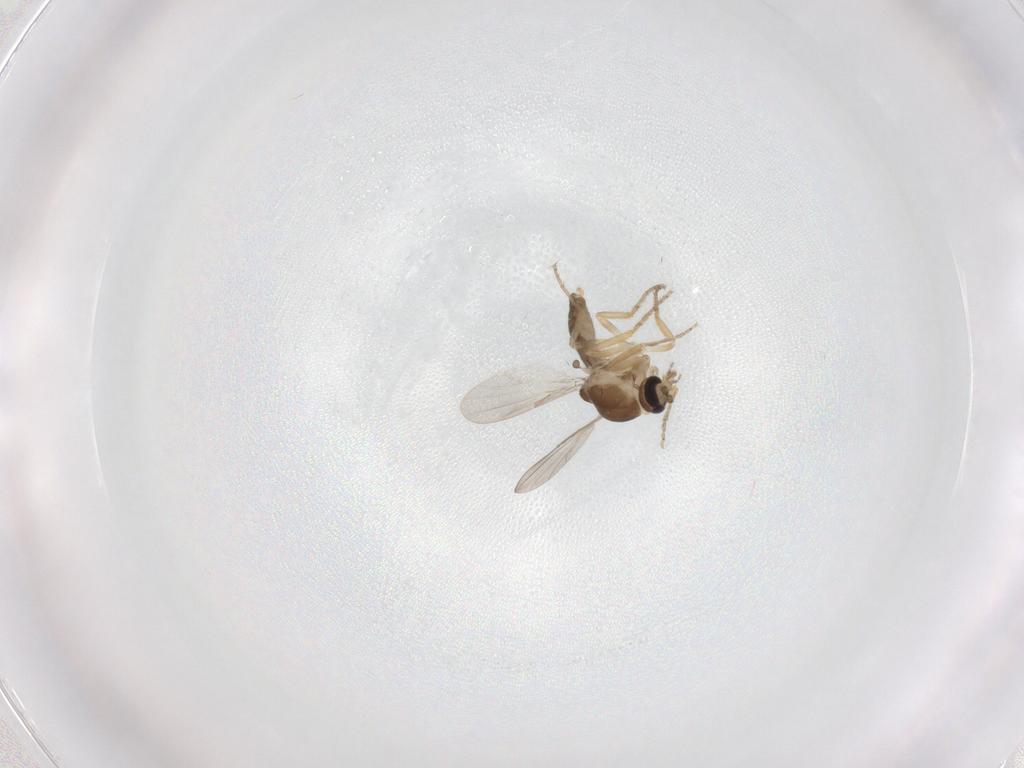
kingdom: Animalia
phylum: Arthropoda
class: Insecta
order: Diptera
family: Ceratopogonidae
